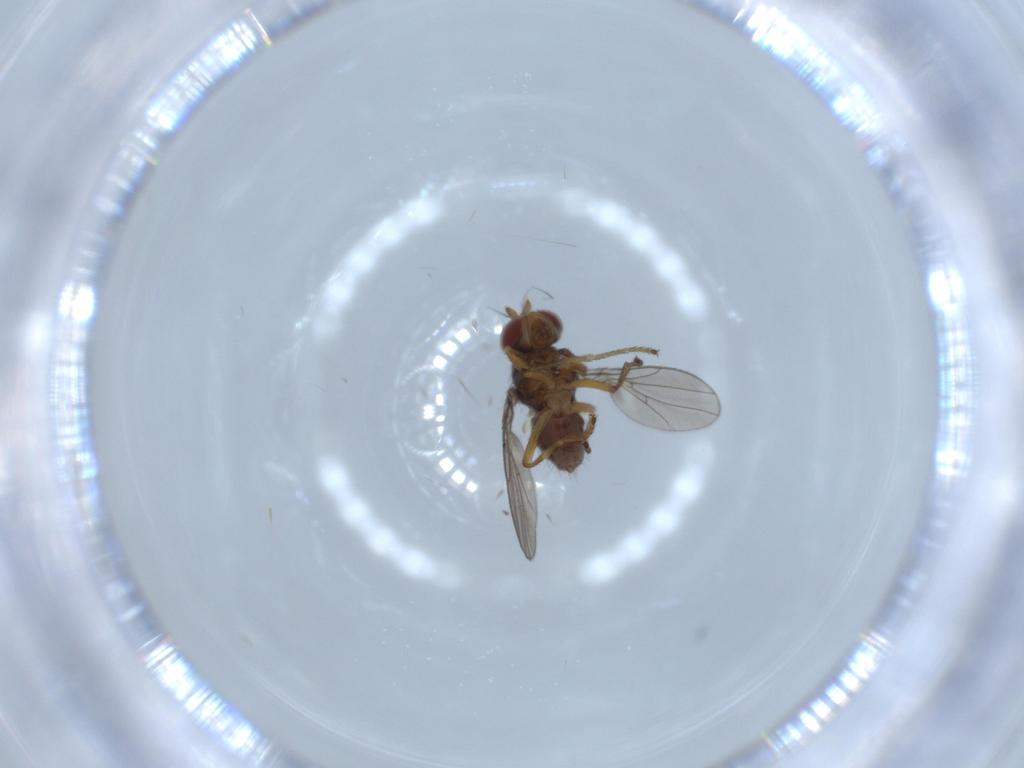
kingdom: Animalia
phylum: Arthropoda
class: Insecta
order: Diptera
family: Ephydridae
